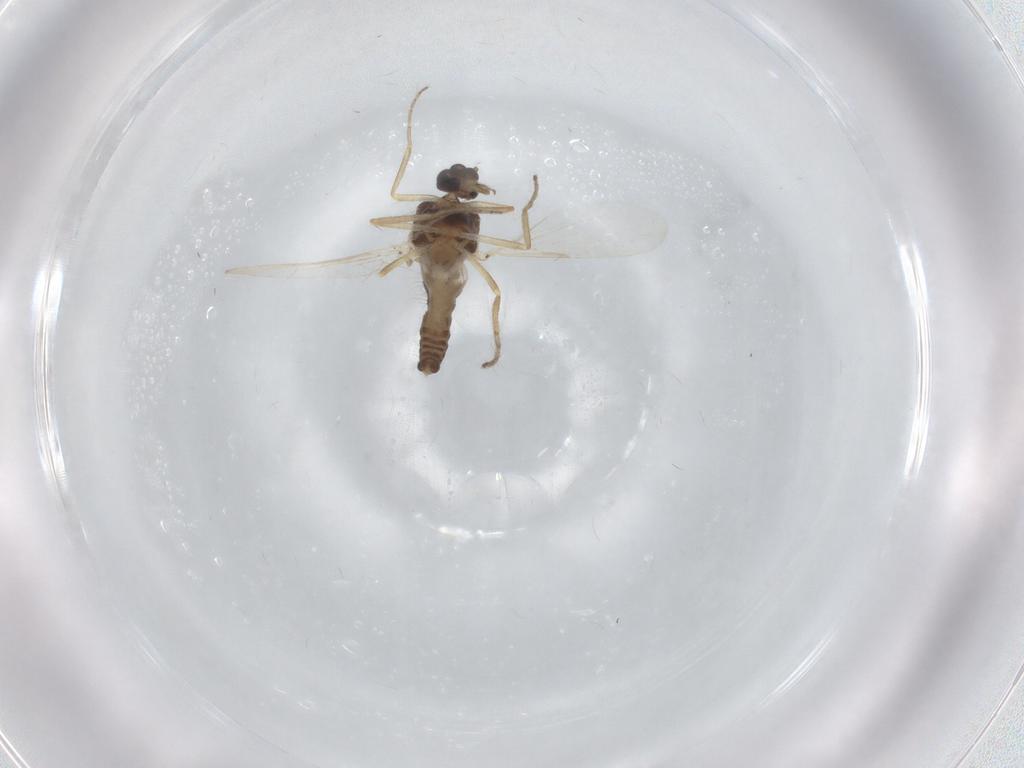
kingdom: Animalia
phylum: Arthropoda
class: Insecta
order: Diptera
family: Ceratopogonidae
